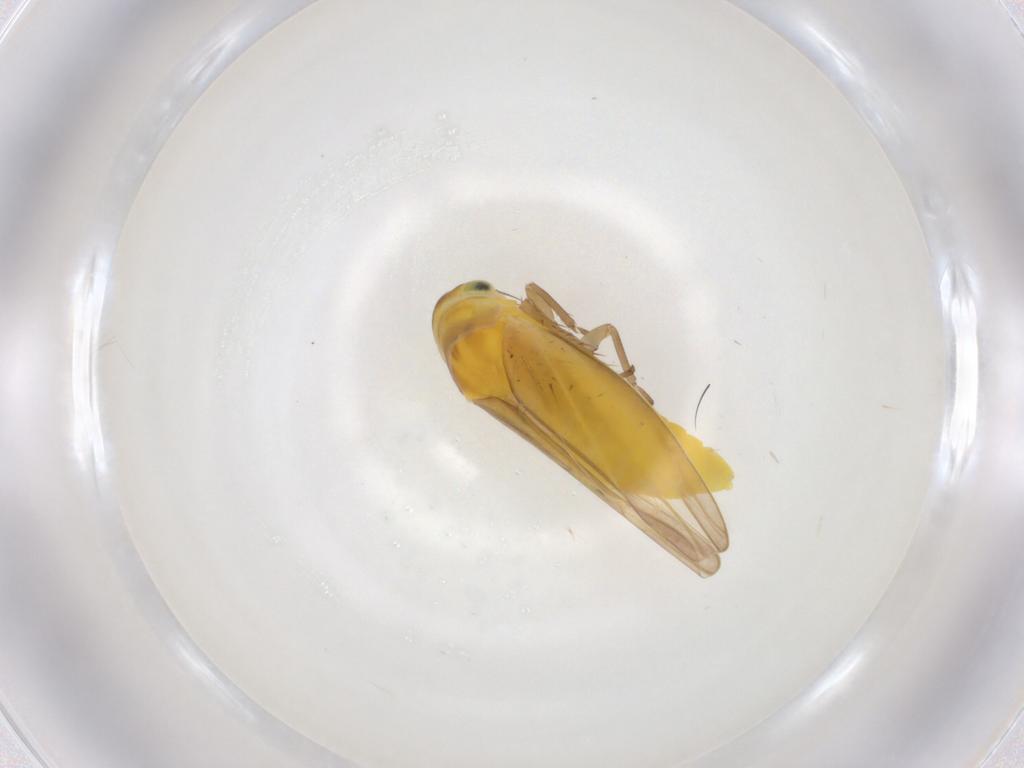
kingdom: Animalia
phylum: Arthropoda
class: Insecta
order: Hemiptera
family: Cicadellidae
